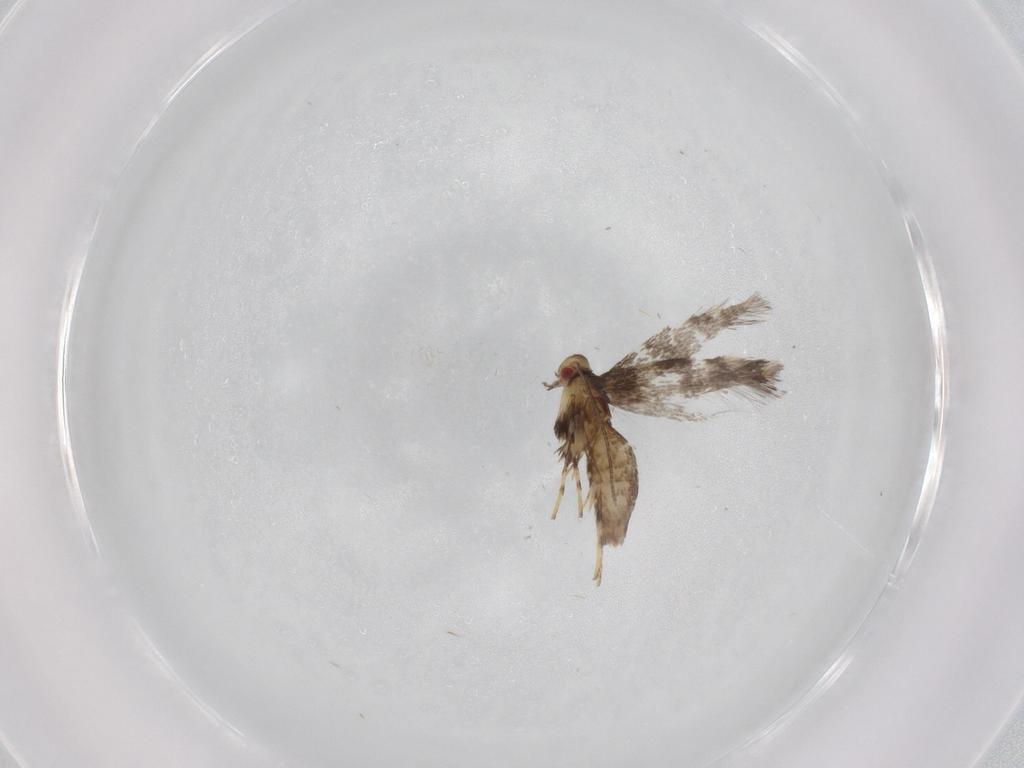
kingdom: Animalia
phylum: Arthropoda
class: Insecta
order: Lepidoptera
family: Gracillariidae
